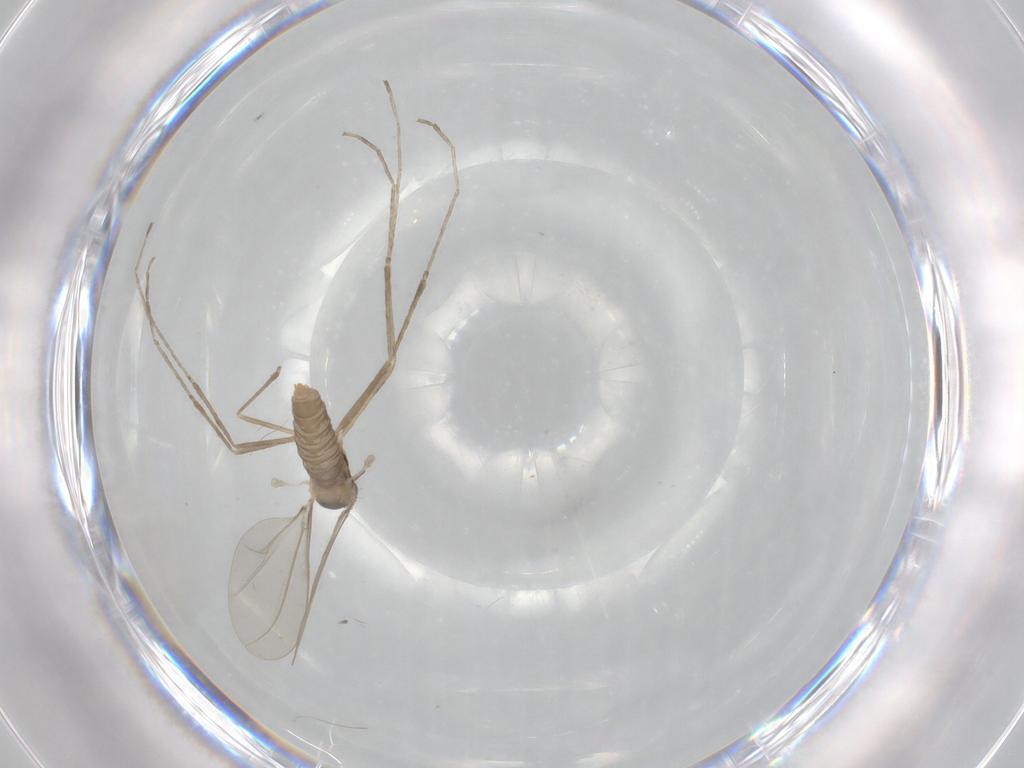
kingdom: Animalia
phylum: Arthropoda
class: Insecta
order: Diptera
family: Cecidomyiidae
